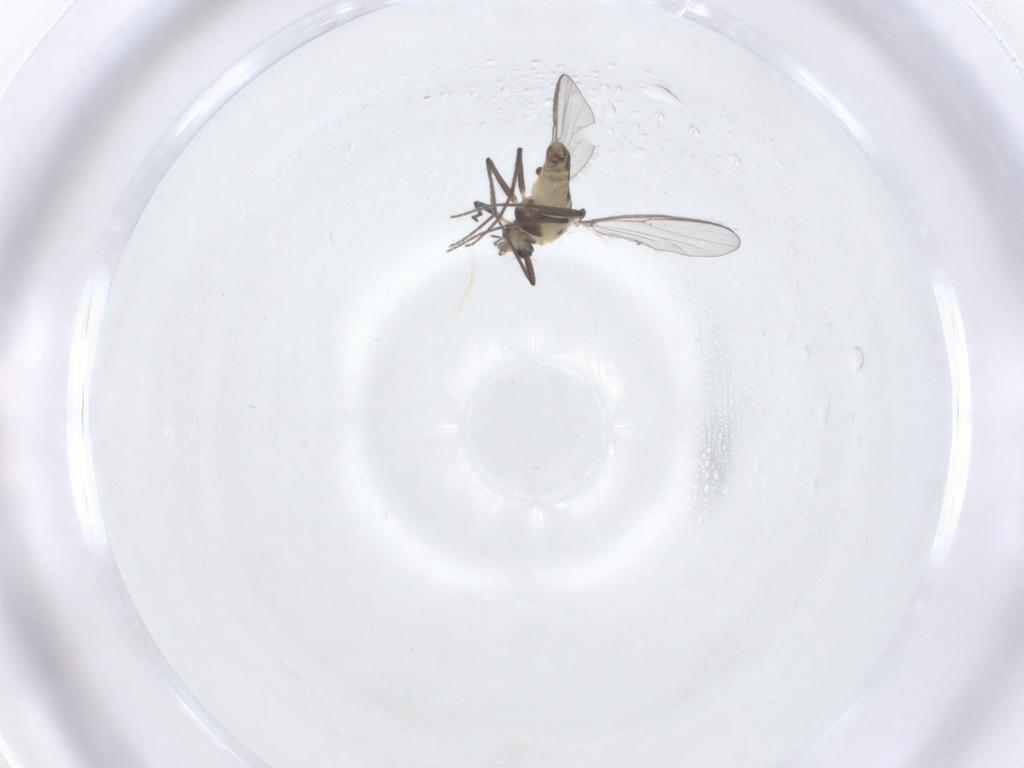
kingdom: Animalia
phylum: Arthropoda
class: Insecta
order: Diptera
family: Chironomidae
